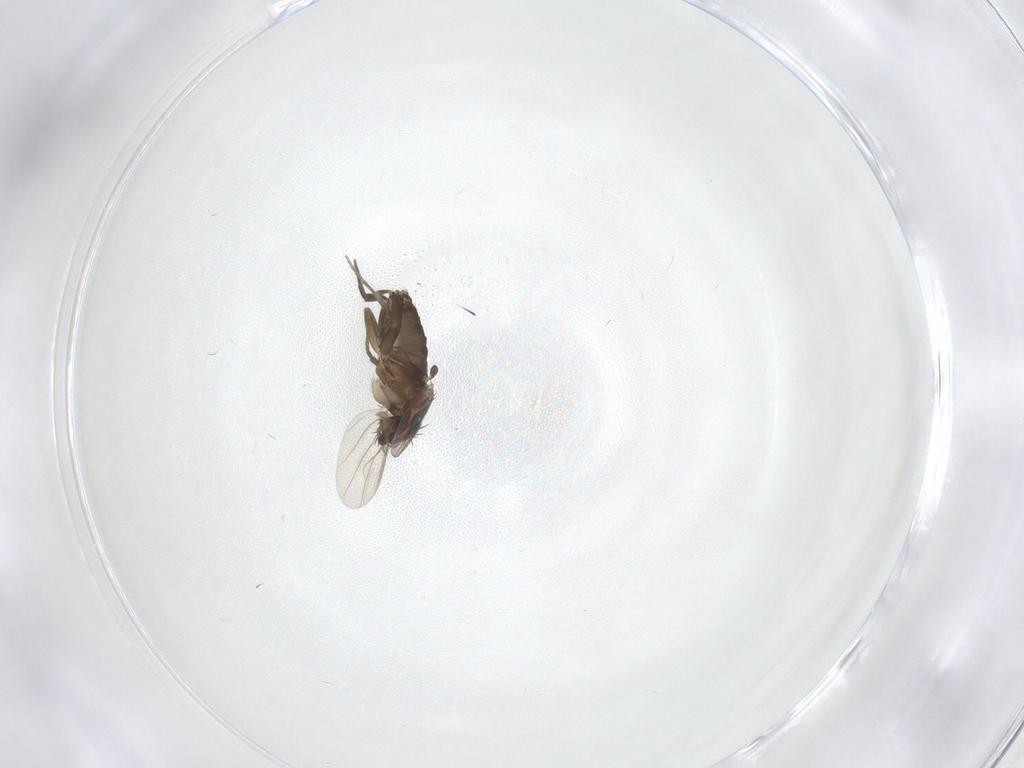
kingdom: Animalia
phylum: Arthropoda
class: Insecta
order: Diptera
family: Phoridae
